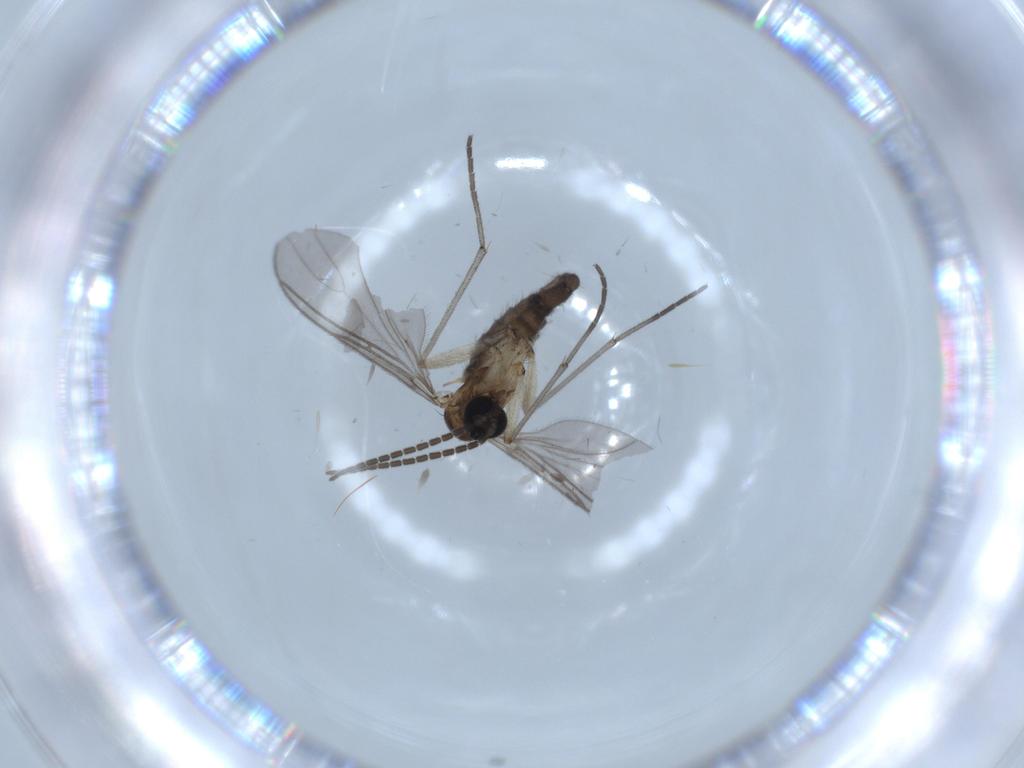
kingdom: Animalia
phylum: Arthropoda
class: Insecta
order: Diptera
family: Sciaridae
